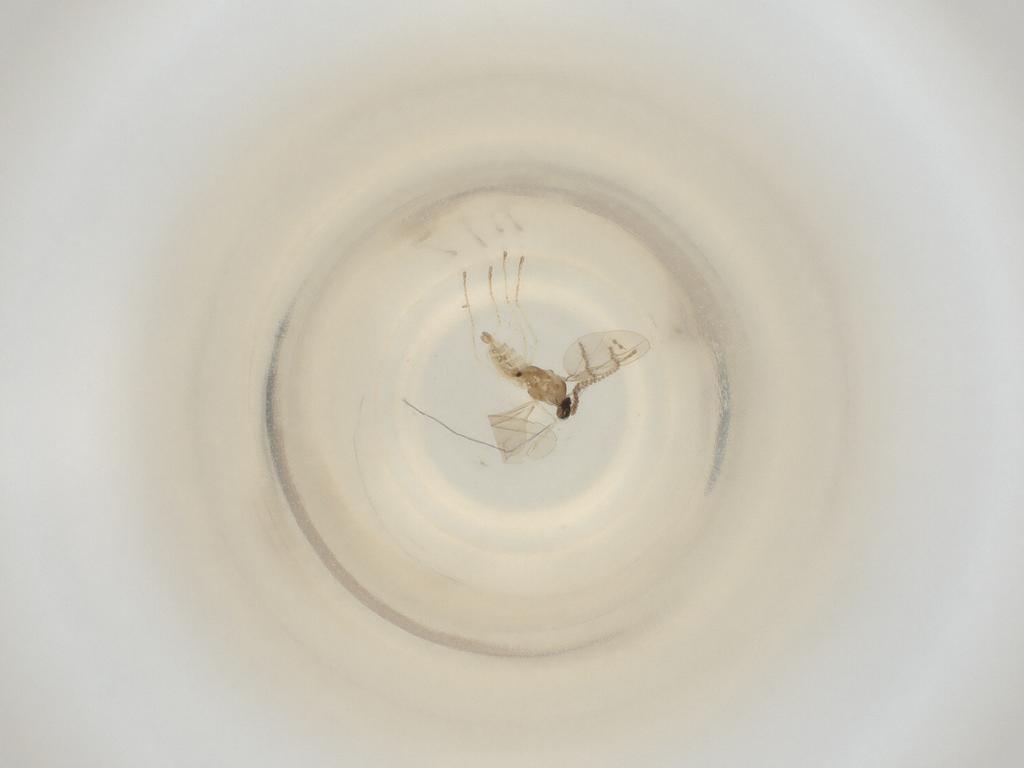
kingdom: Animalia
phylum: Arthropoda
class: Insecta
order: Diptera
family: Cecidomyiidae
